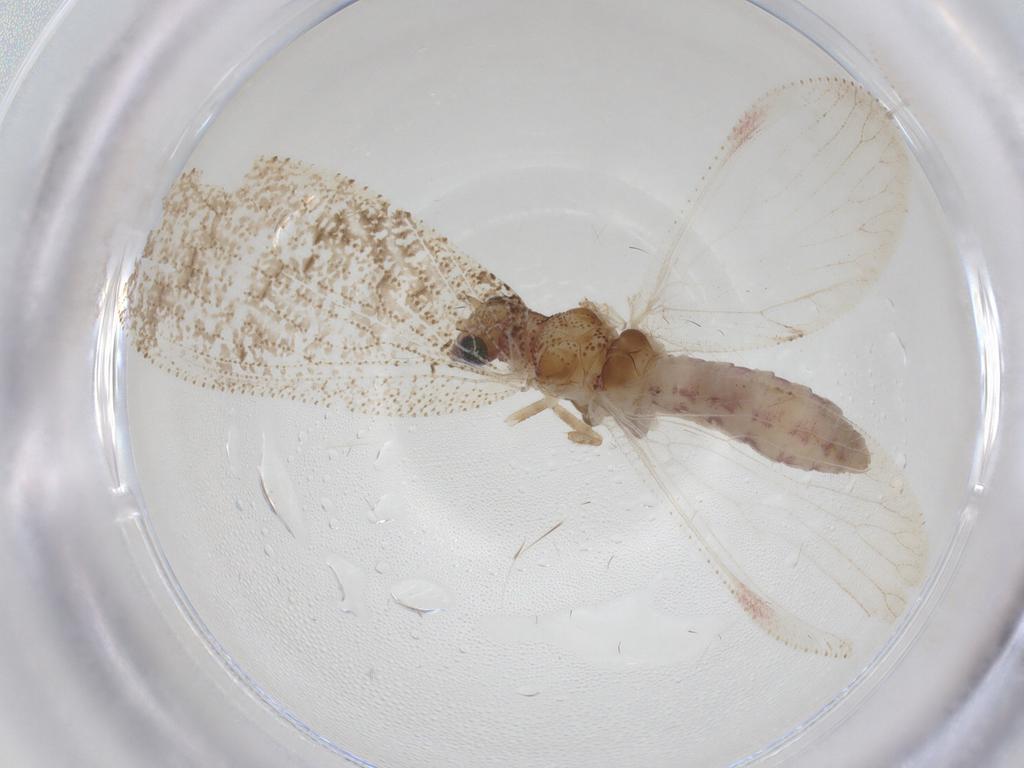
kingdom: Animalia
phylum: Arthropoda
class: Insecta
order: Neuroptera
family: Hemerobiidae
